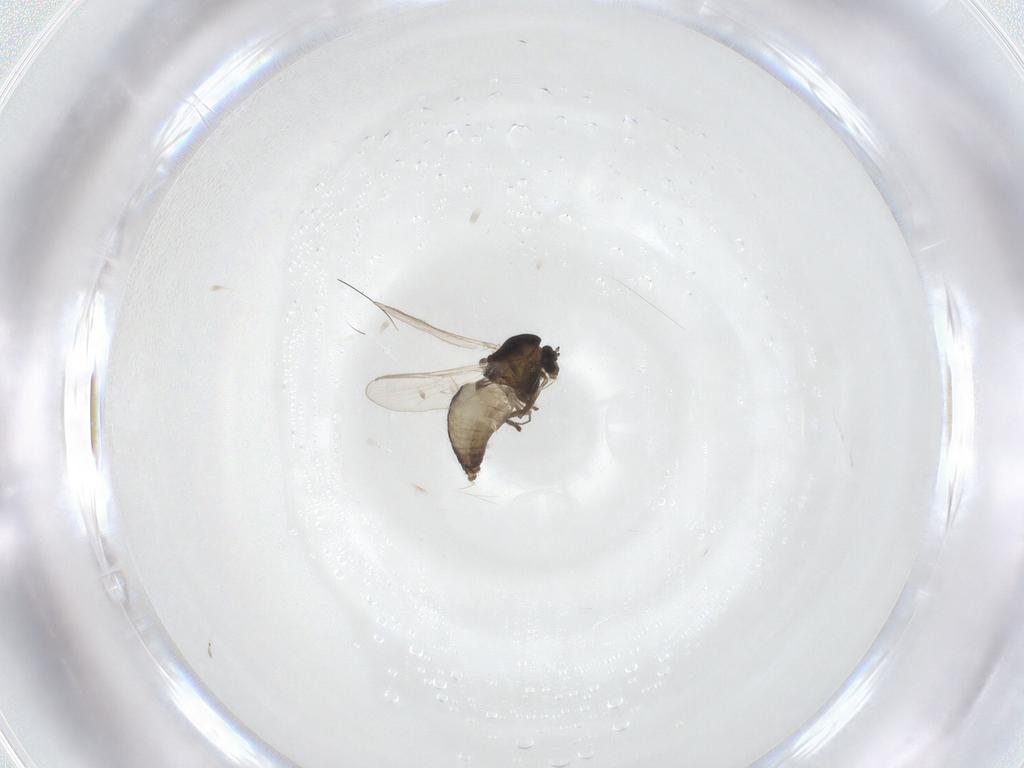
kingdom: Animalia
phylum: Arthropoda
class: Insecta
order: Diptera
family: Chironomidae
